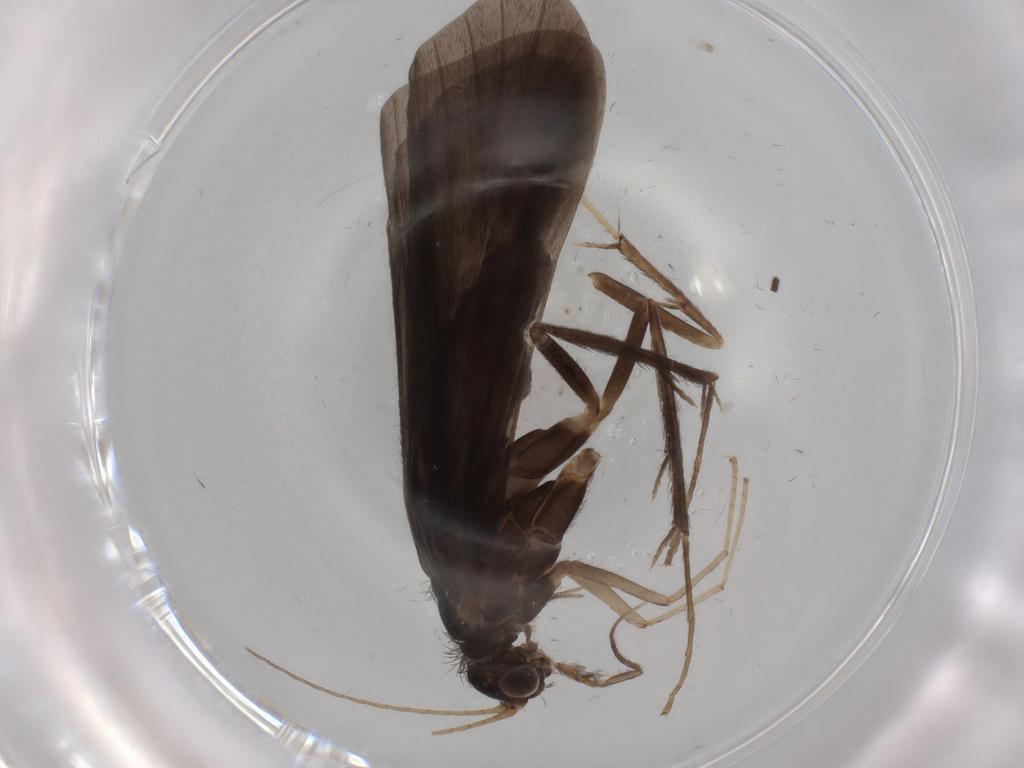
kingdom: Animalia
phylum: Arthropoda
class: Insecta
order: Trichoptera
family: Hydropsychidae
